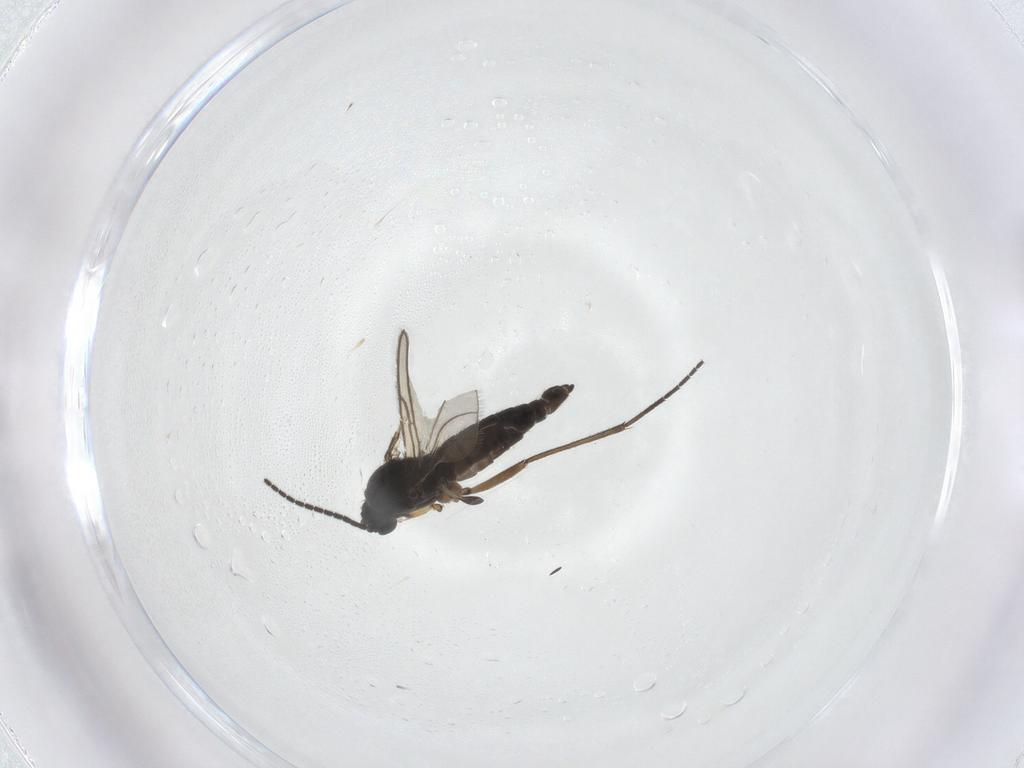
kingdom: Animalia
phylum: Arthropoda
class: Insecta
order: Diptera
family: Sciaridae
